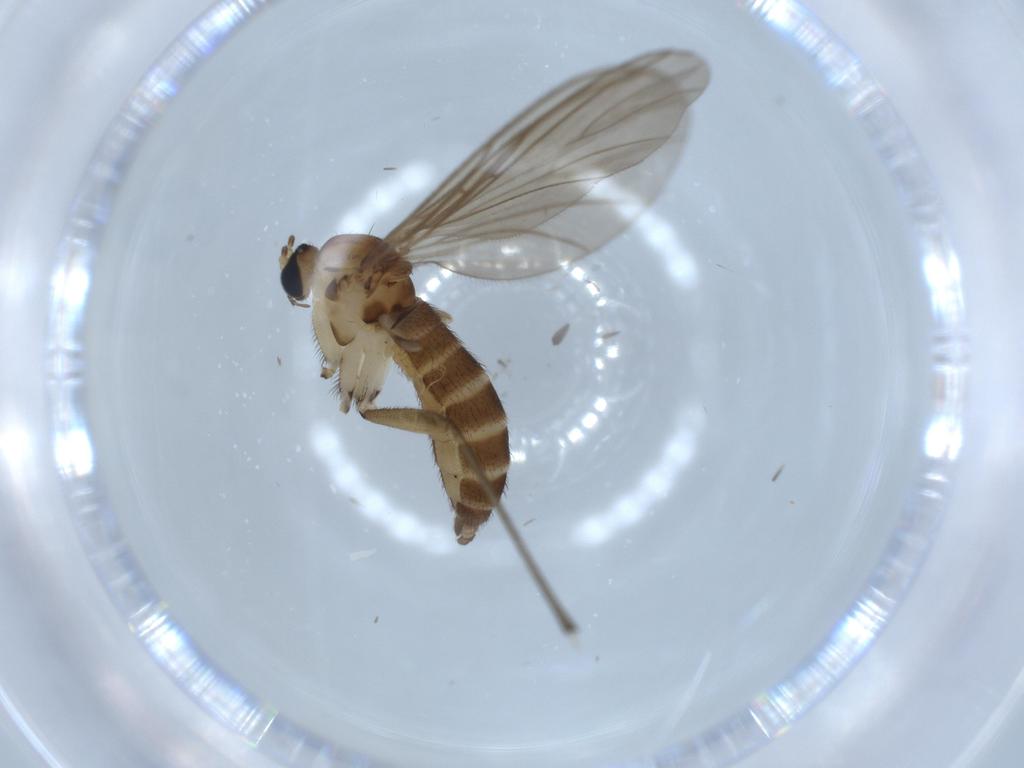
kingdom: Animalia
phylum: Arthropoda
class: Insecta
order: Diptera
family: Sciaridae
